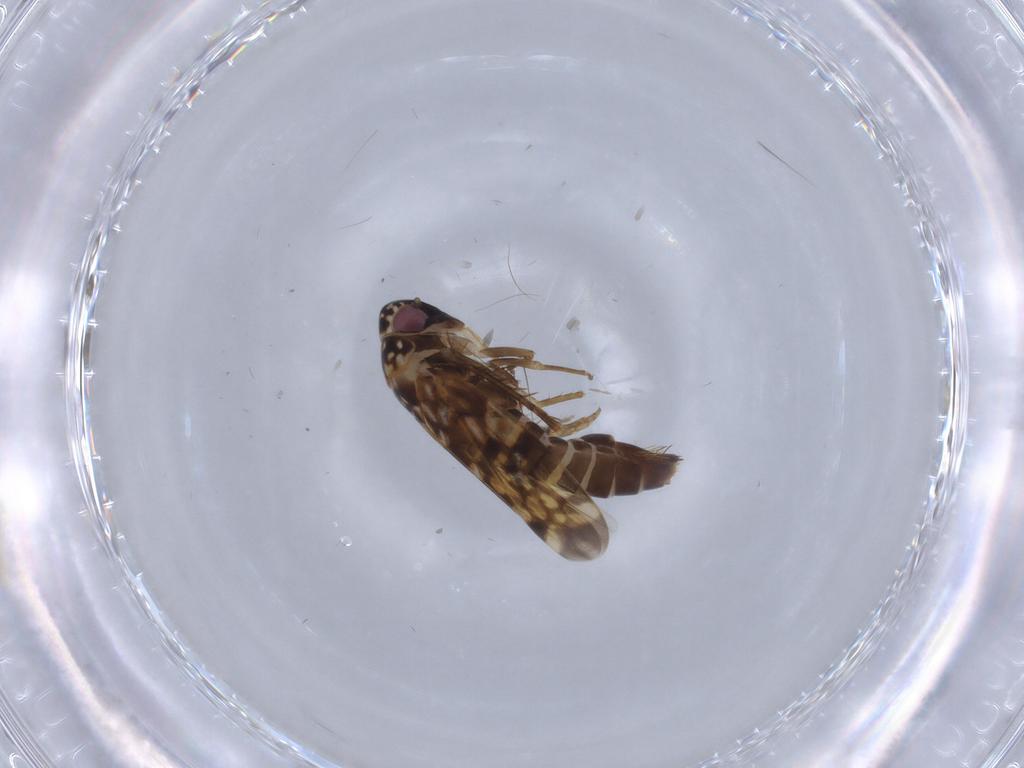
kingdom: Animalia
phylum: Arthropoda
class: Insecta
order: Hemiptera
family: Cicadellidae
